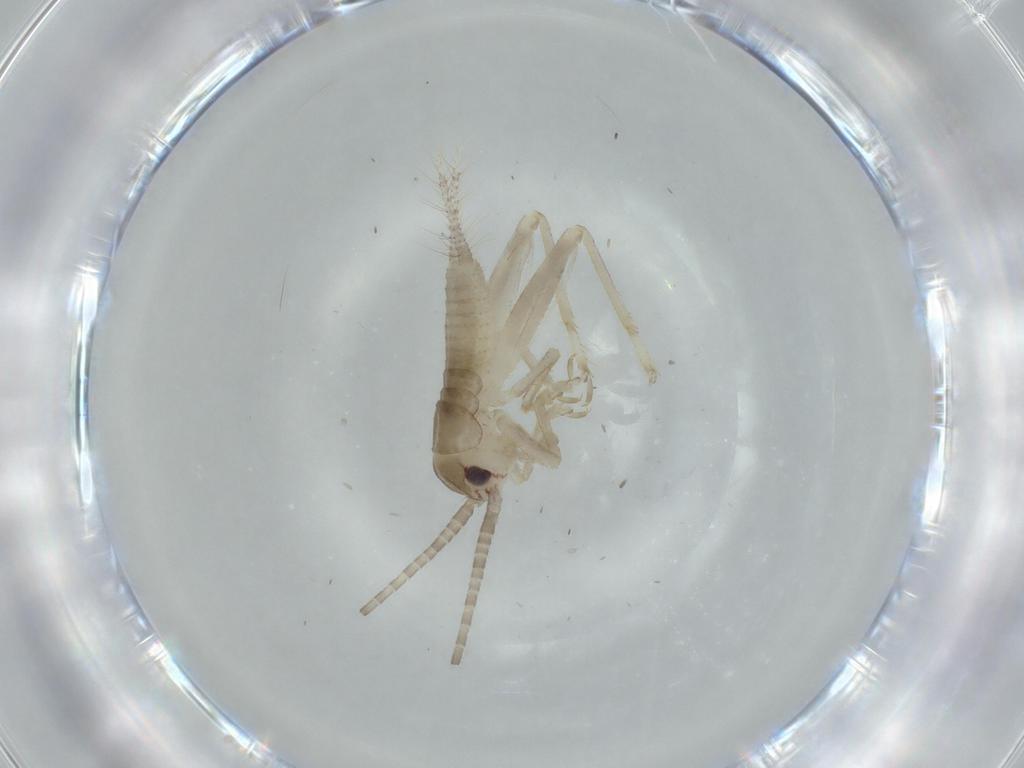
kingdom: Animalia
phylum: Arthropoda
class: Insecta
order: Orthoptera
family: Gryllidae
